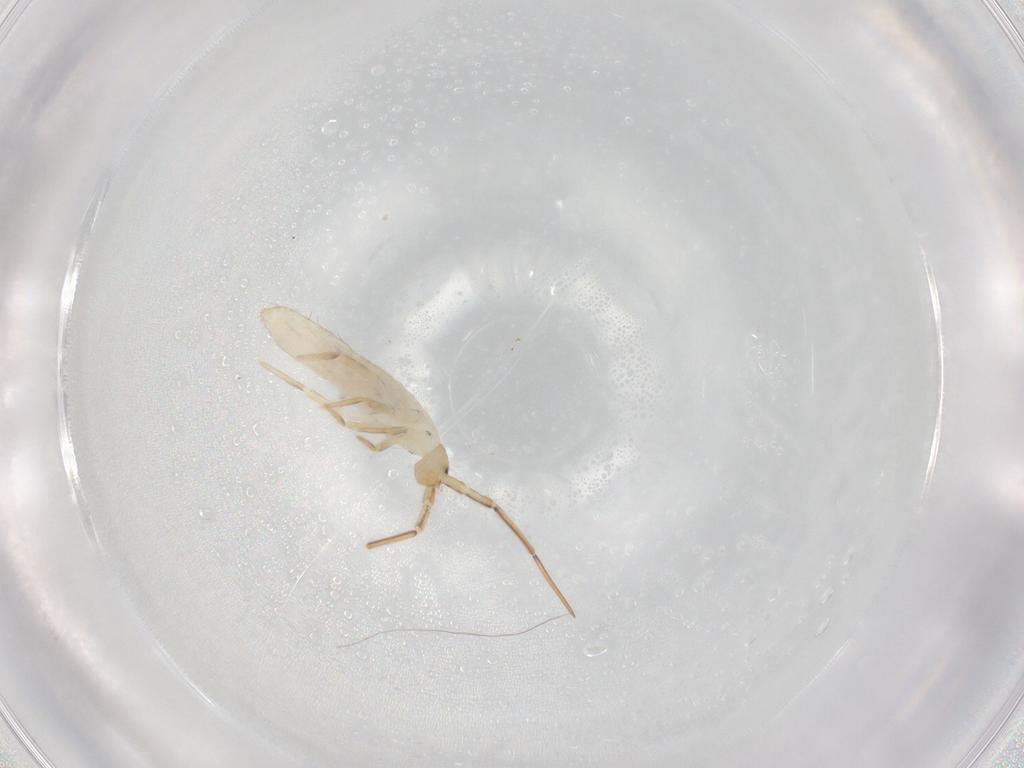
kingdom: Animalia
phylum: Arthropoda
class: Collembola
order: Entomobryomorpha
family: Entomobryidae
